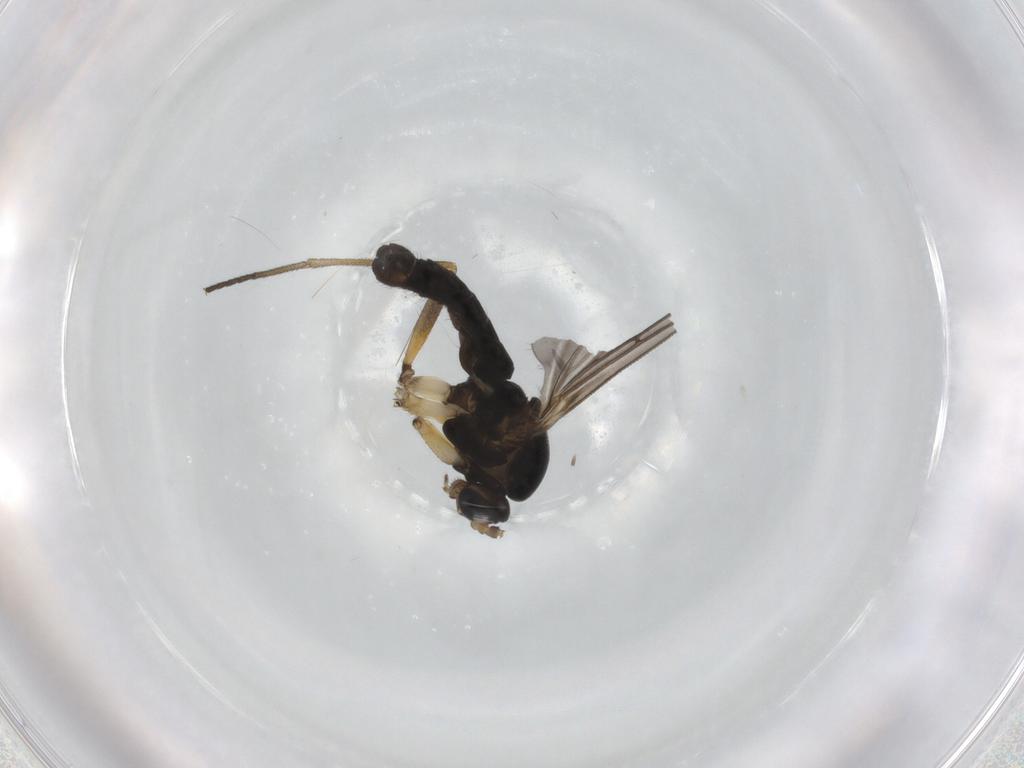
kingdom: Animalia
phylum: Arthropoda
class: Insecta
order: Diptera
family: Sciaridae
